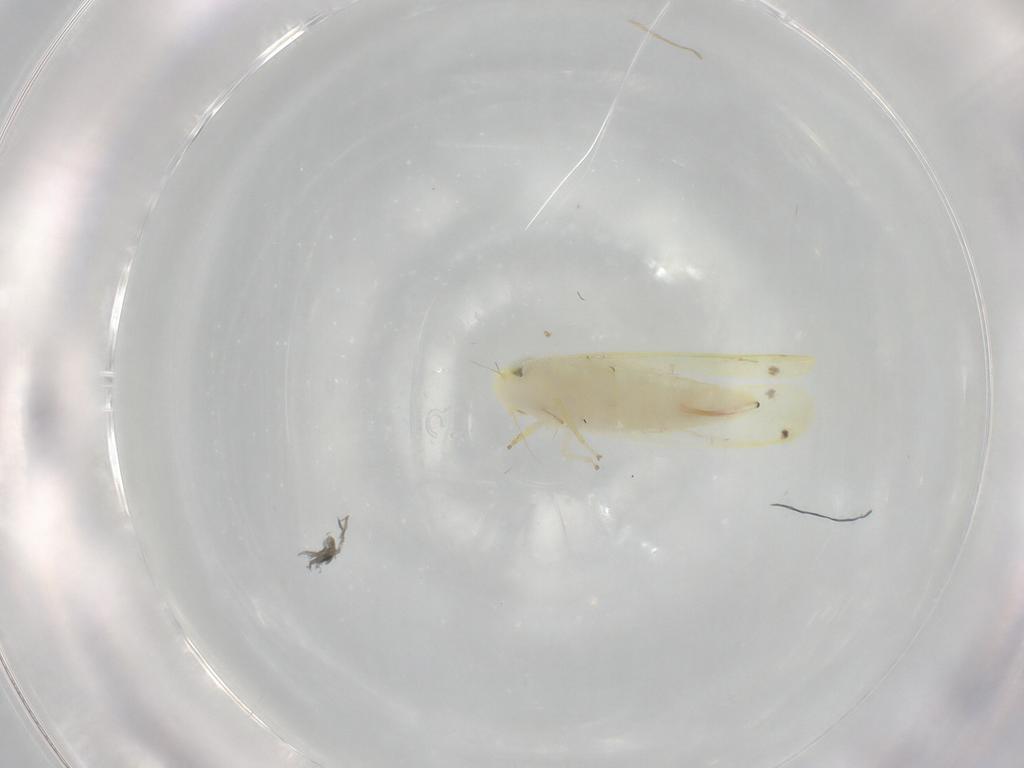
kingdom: Animalia
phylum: Arthropoda
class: Insecta
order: Hemiptera
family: Cicadellidae
